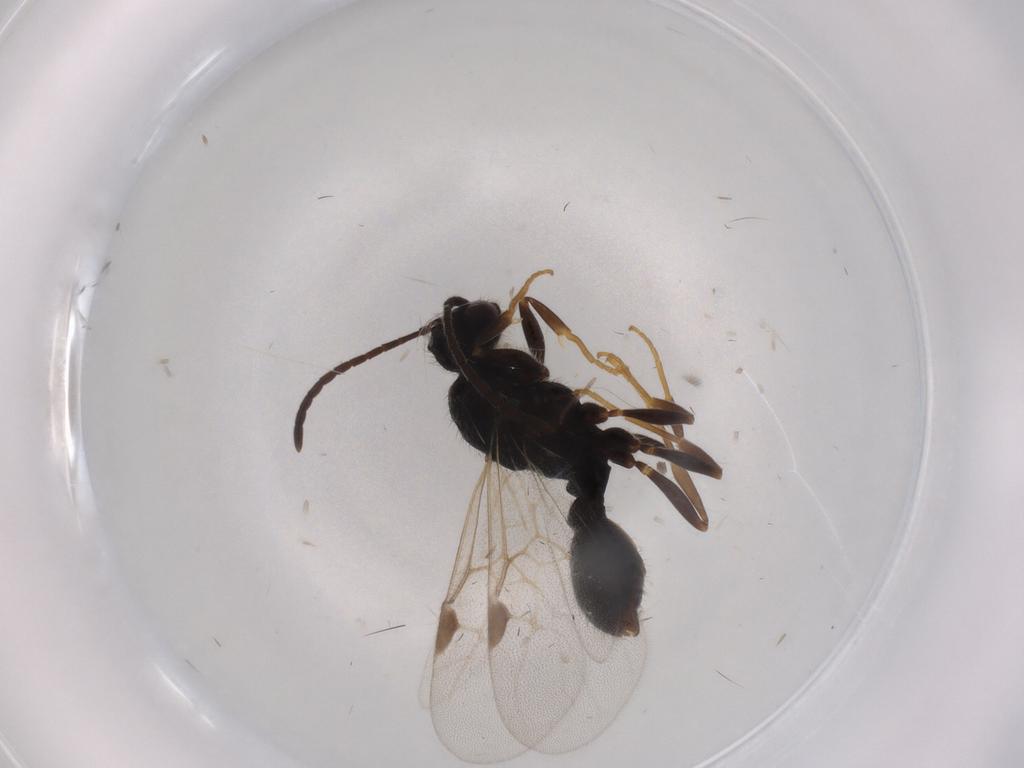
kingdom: Animalia
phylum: Arthropoda
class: Insecta
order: Hymenoptera
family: Formicidae
